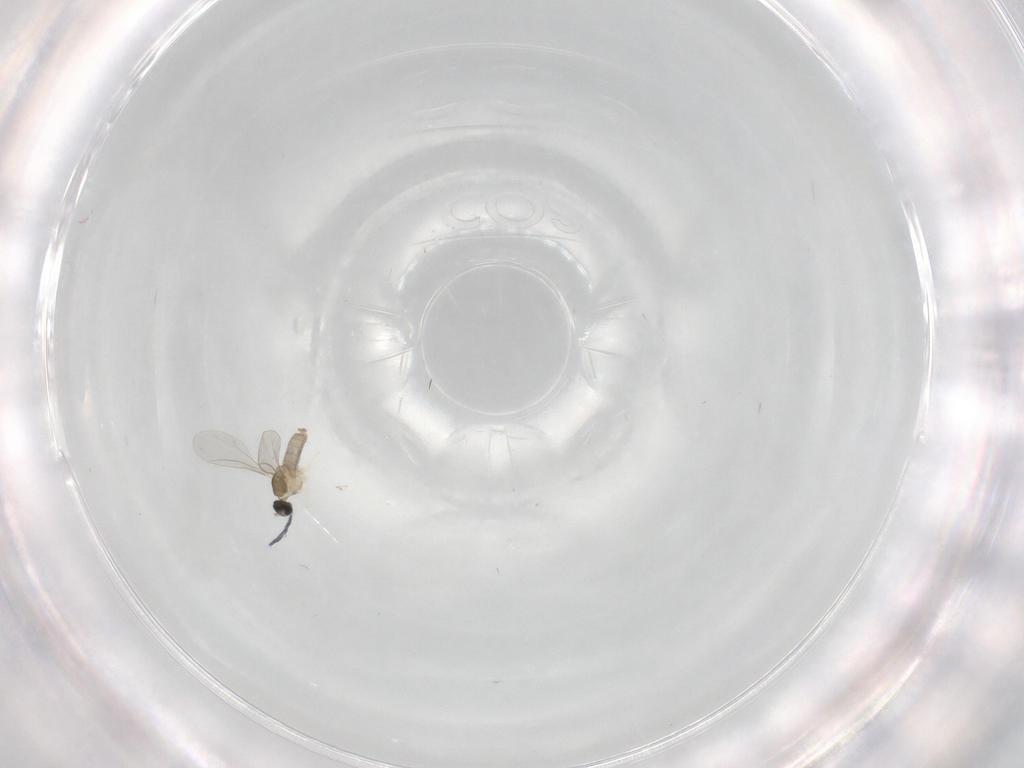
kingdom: Animalia
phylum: Arthropoda
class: Insecta
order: Diptera
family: Cecidomyiidae
